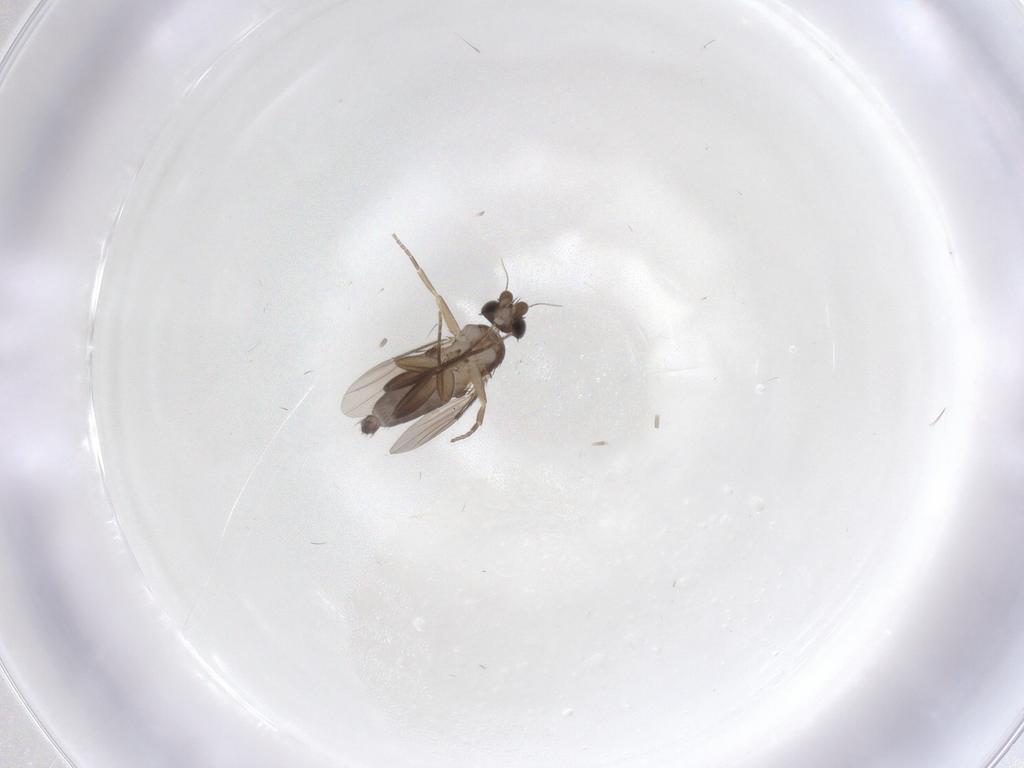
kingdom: Animalia
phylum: Arthropoda
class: Insecta
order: Diptera
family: Phoridae
